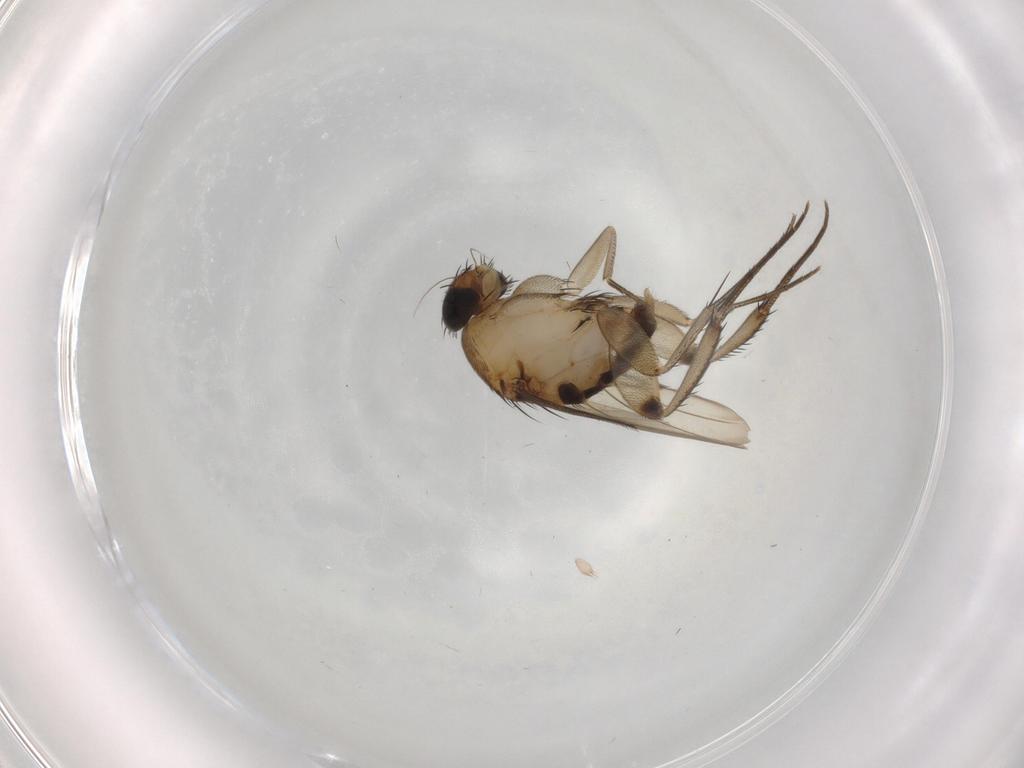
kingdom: Animalia
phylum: Arthropoda
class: Insecta
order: Diptera
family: Phoridae
